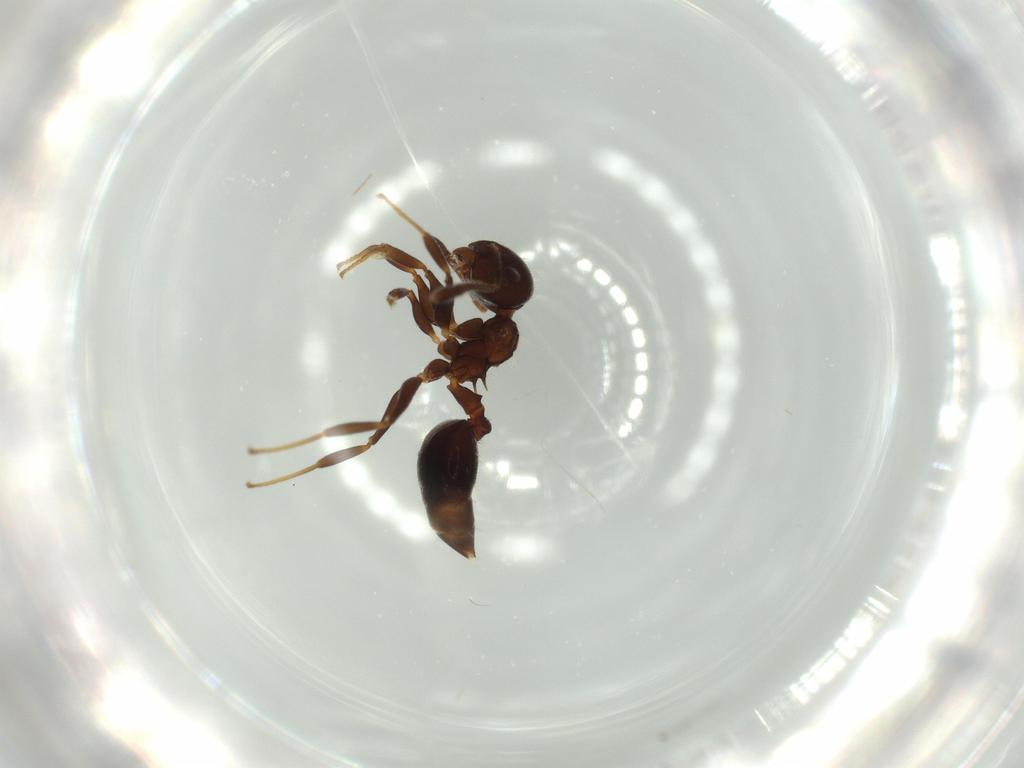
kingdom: Animalia
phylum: Arthropoda
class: Insecta
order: Hymenoptera
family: Formicidae
